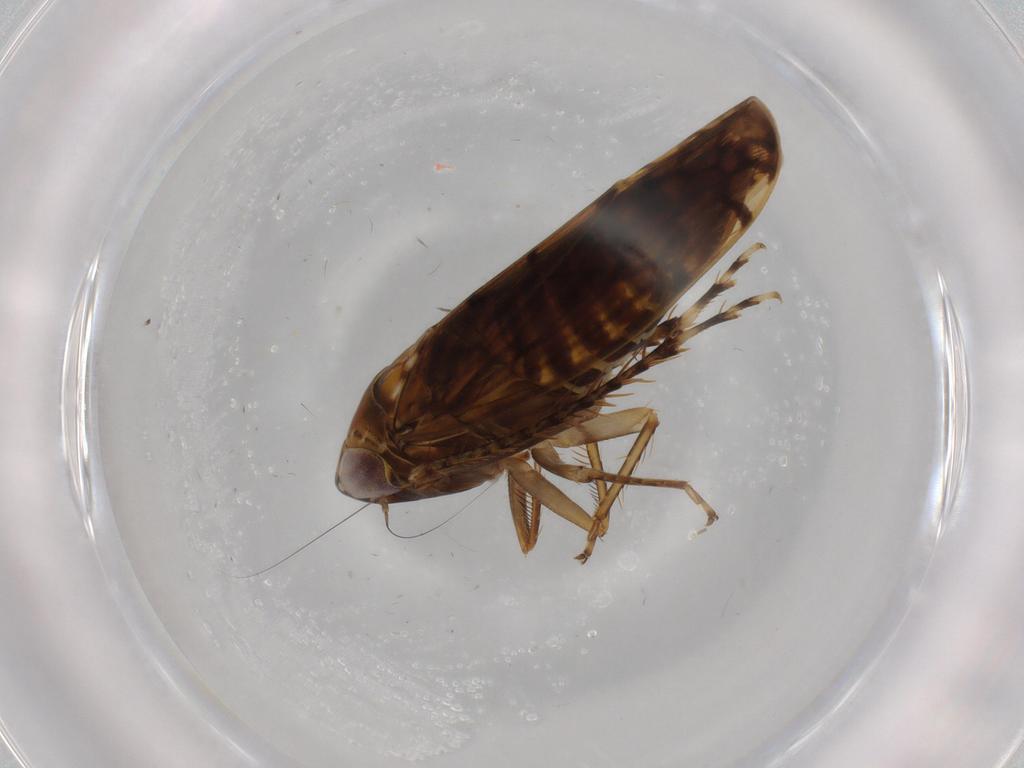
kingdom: Animalia
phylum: Arthropoda
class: Insecta
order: Hemiptera
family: Cicadellidae
